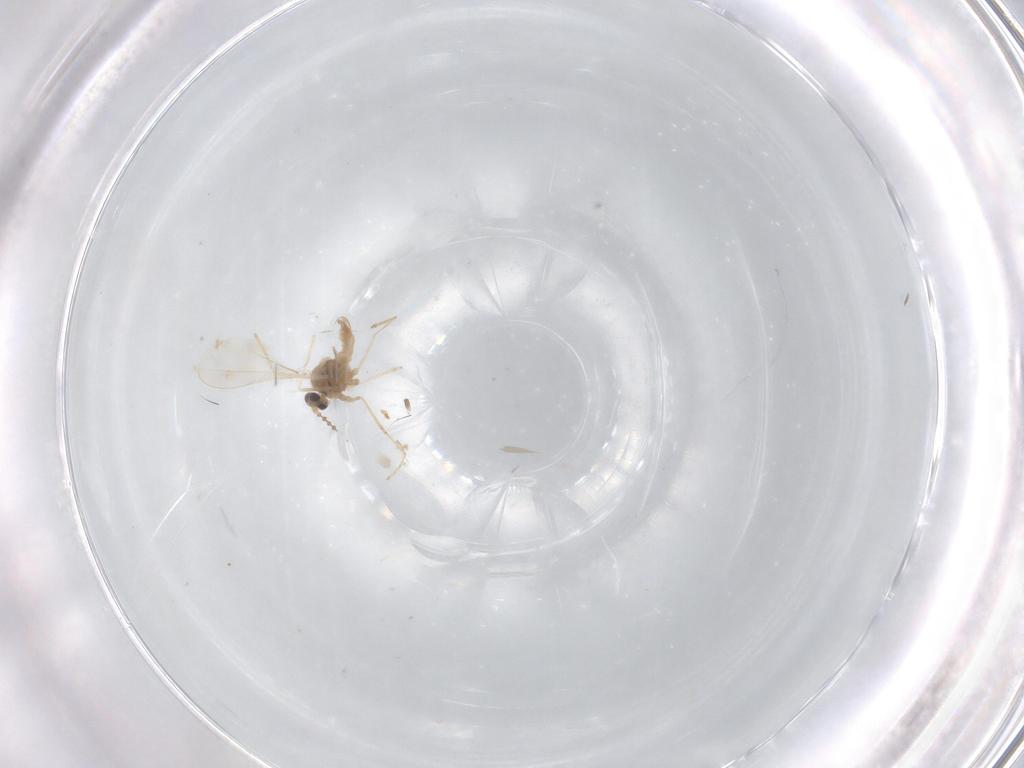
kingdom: Animalia
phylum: Arthropoda
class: Insecta
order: Diptera
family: Cecidomyiidae
